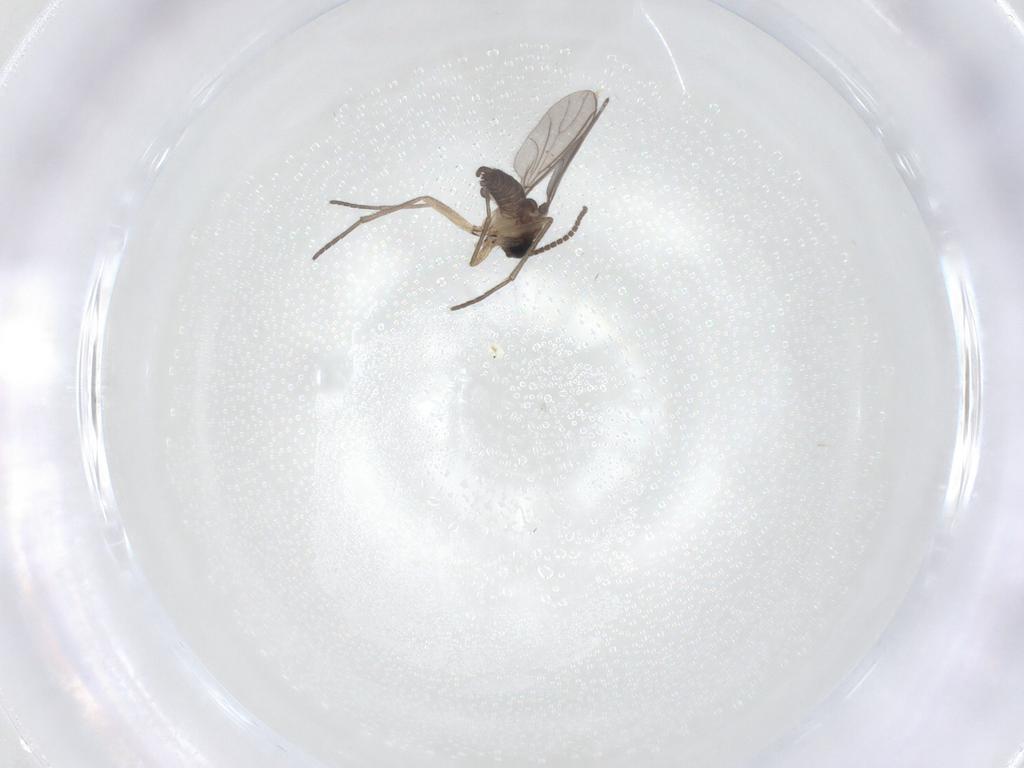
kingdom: Animalia
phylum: Arthropoda
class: Insecta
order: Diptera
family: Sciaridae
